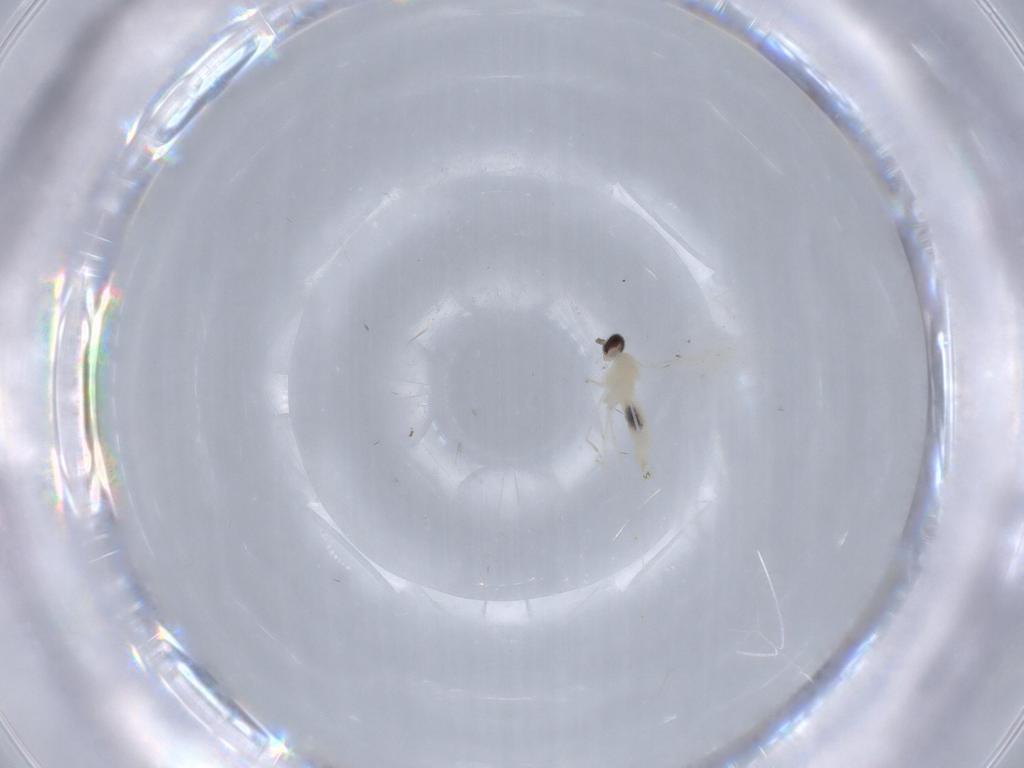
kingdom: Animalia
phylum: Arthropoda
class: Insecta
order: Diptera
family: Cecidomyiidae
